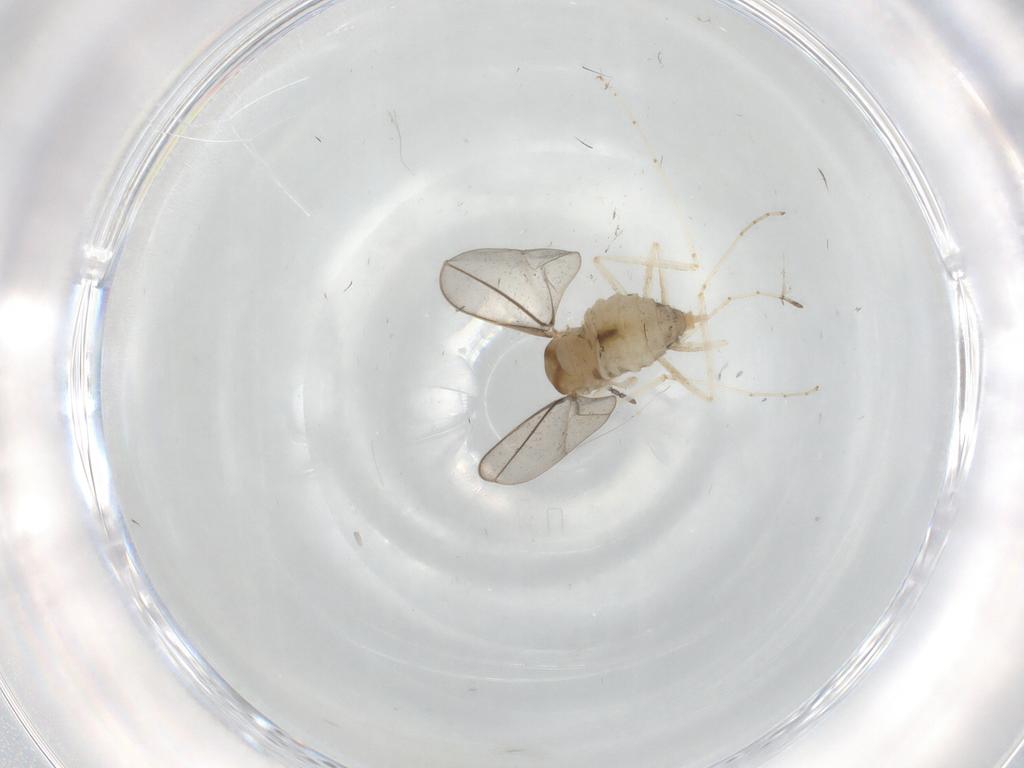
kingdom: Animalia
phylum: Arthropoda
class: Insecta
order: Diptera
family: Cecidomyiidae
